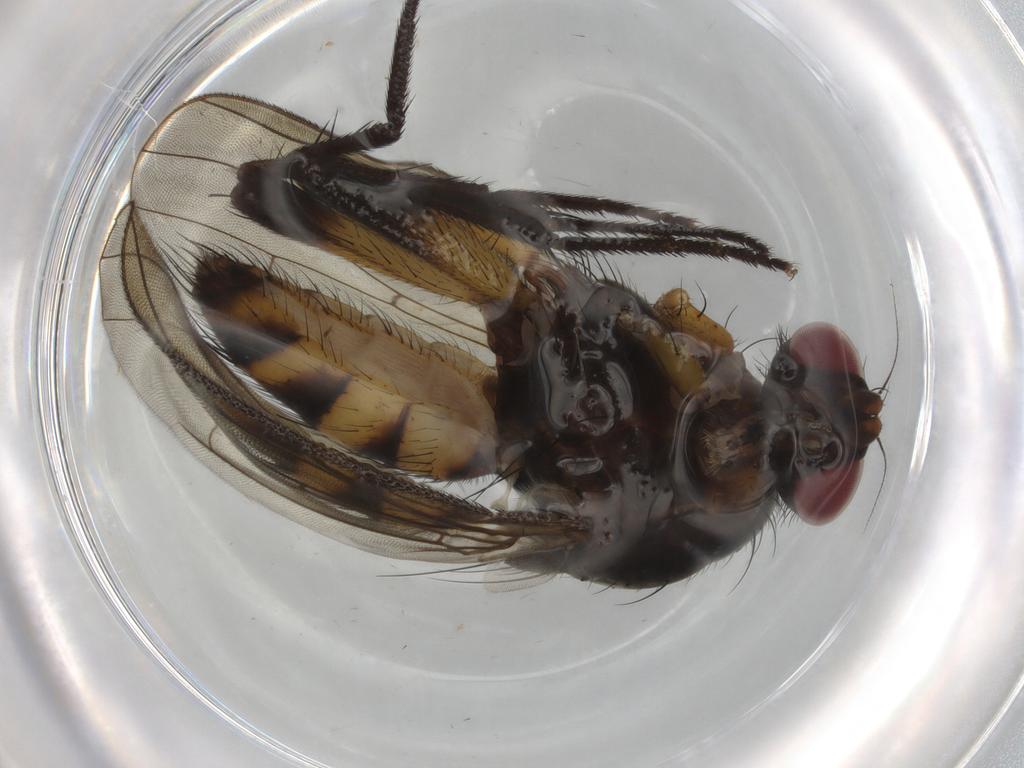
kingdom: Animalia
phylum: Arthropoda
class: Insecta
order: Diptera
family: Anthomyiidae
